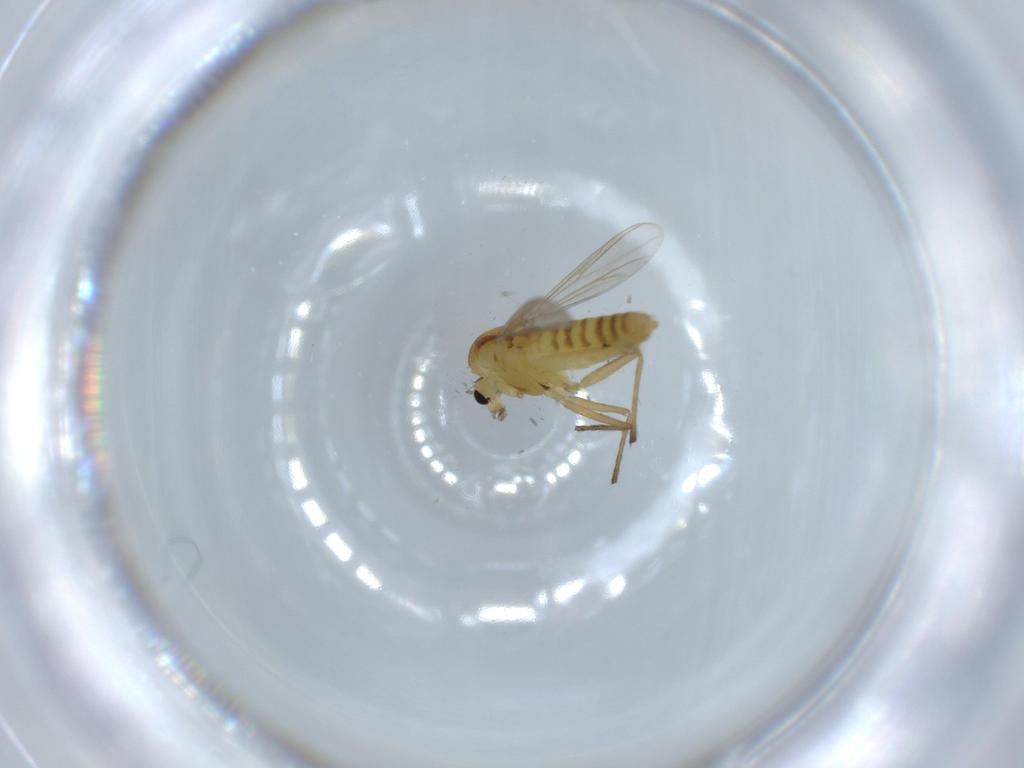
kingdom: Animalia
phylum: Arthropoda
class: Insecta
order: Diptera
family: Chironomidae
